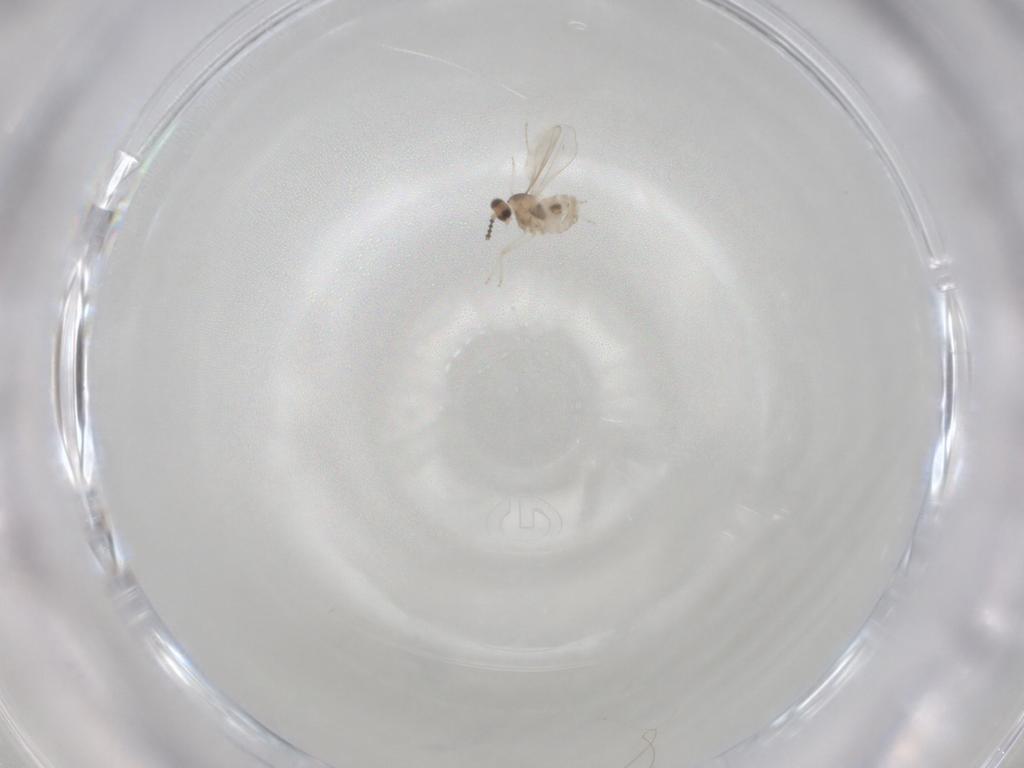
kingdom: Animalia
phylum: Arthropoda
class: Insecta
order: Diptera
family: Cecidomyiidae
